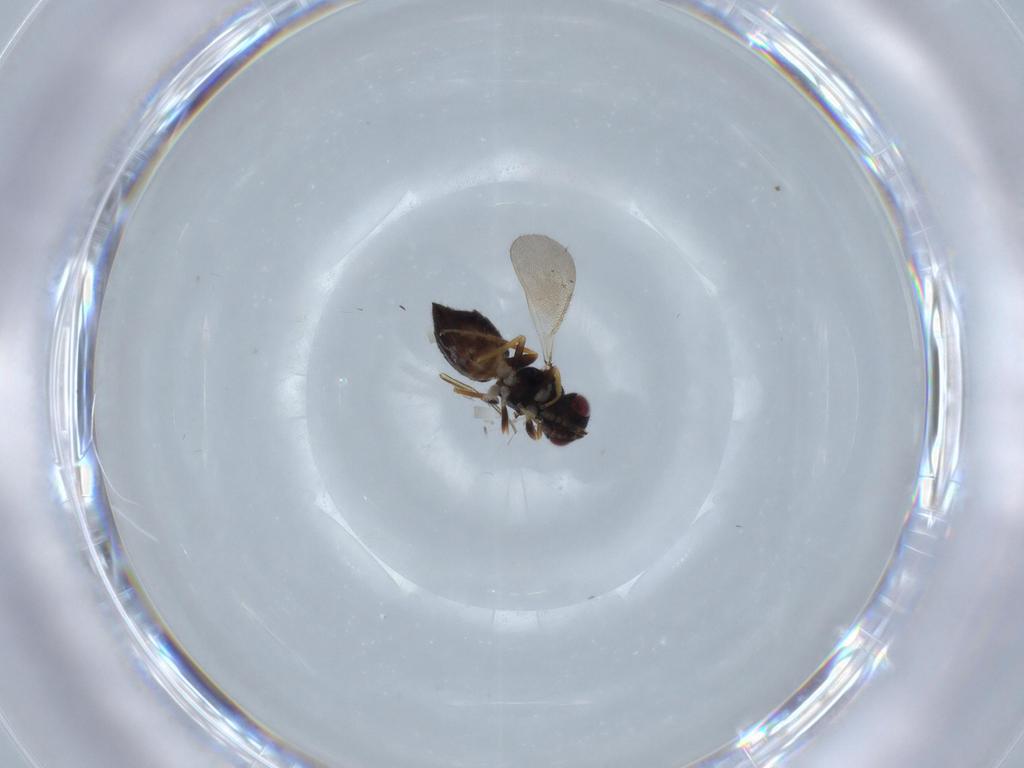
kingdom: Animalia
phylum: Arthropoda
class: Insecta
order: Hymenoptera
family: Eulophidae
